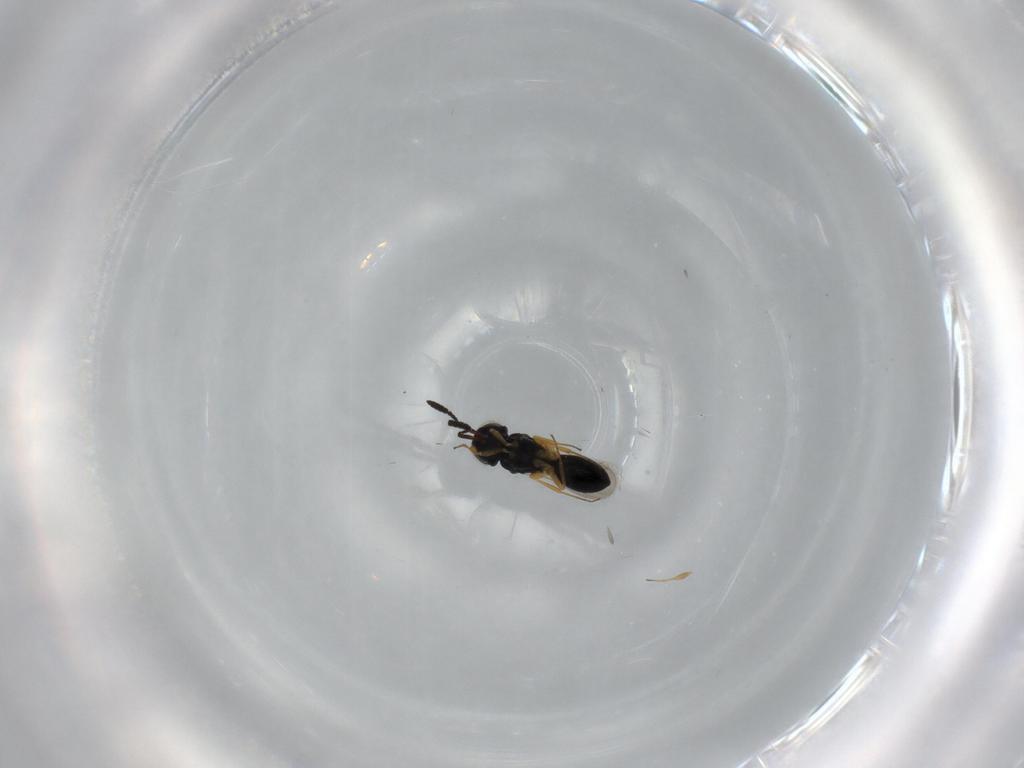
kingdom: Animalia
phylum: Arthropoda
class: Insecta
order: Hymenoptera
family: Scelionidae
